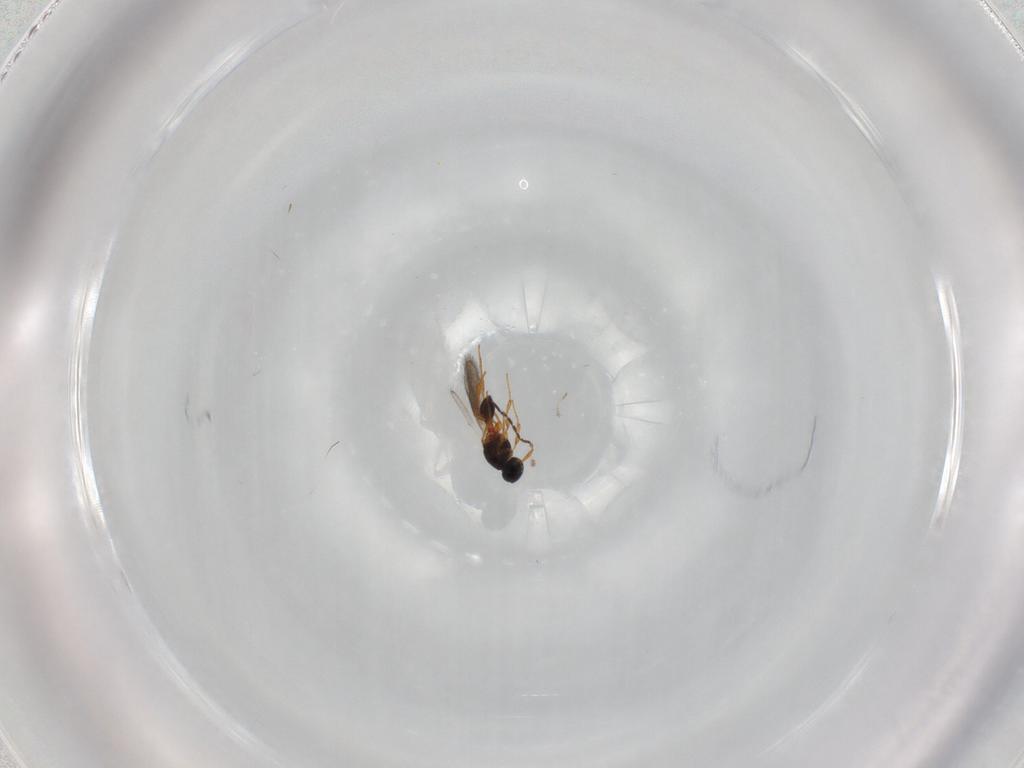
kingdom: Animalia
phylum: Arthropoda
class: Insecta
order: Hymenoptera
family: Platygastridae
